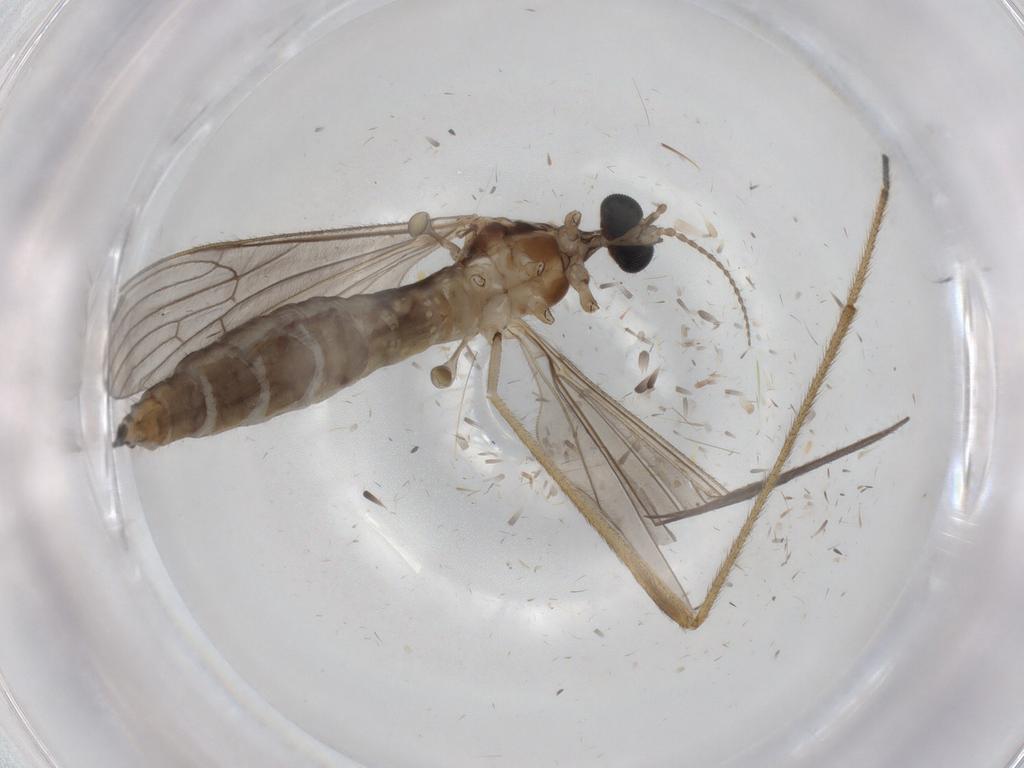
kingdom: Animalia
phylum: Arthropoda
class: Insecta
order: Diptera
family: Limoniidae
